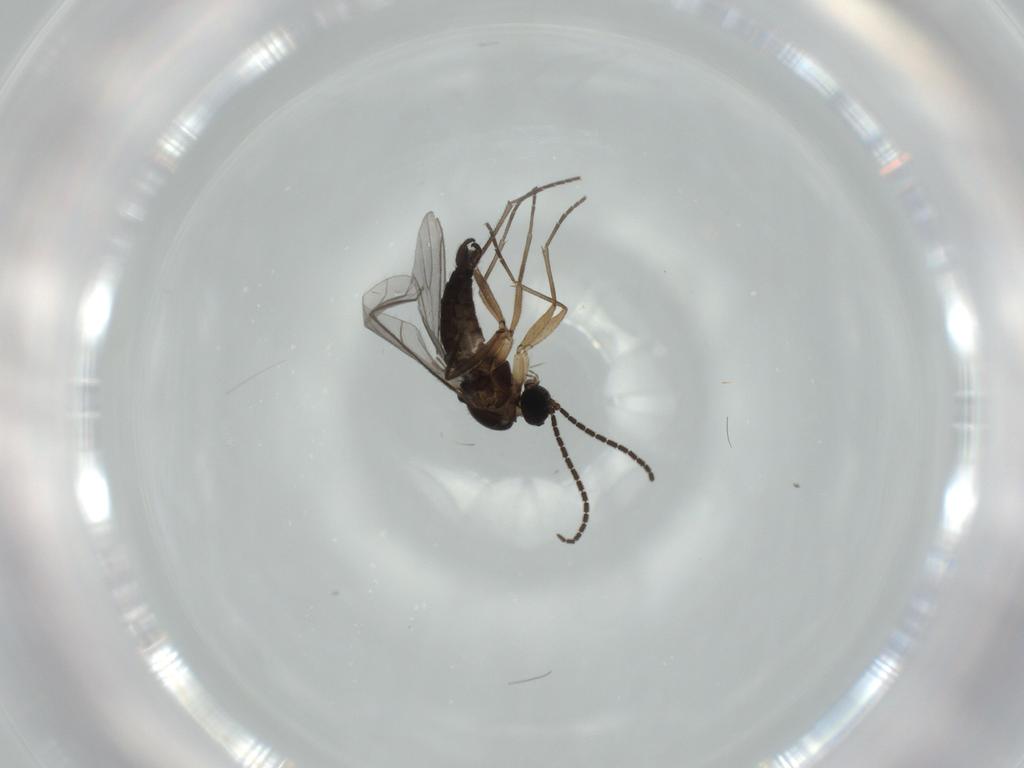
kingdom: Animalia
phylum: Arthropoda
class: Insecta
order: Diptera
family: Sciaridae
